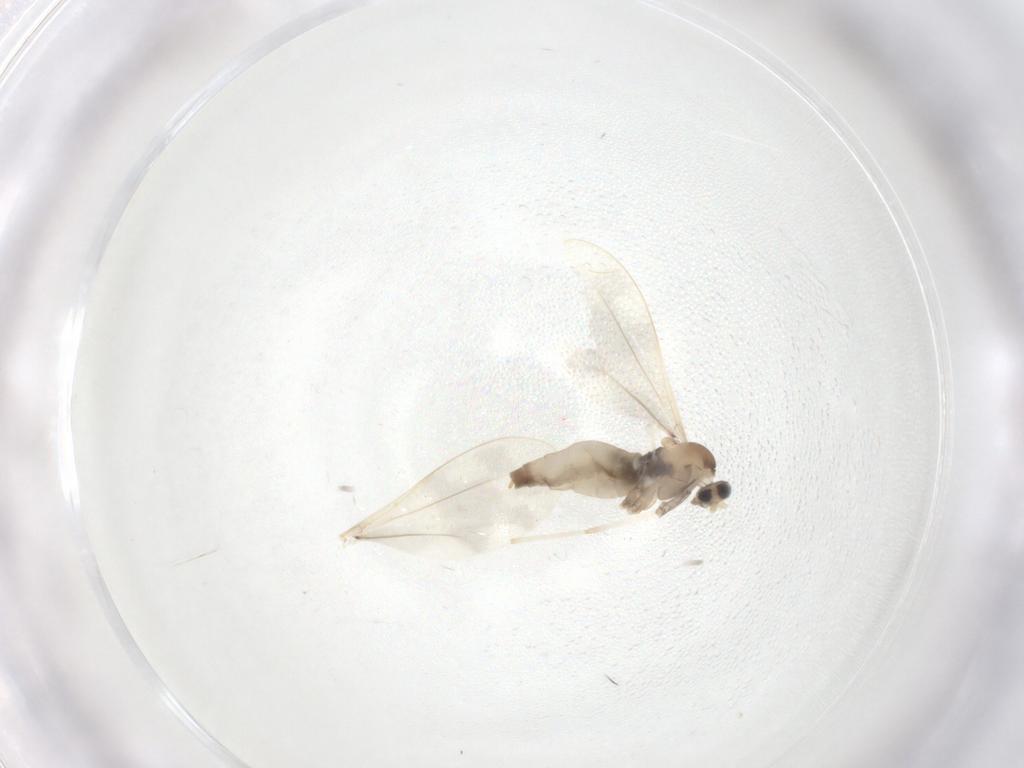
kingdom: Animalia
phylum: Arthropoda
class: Insecta
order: Diptera
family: Cecidomyiidae
